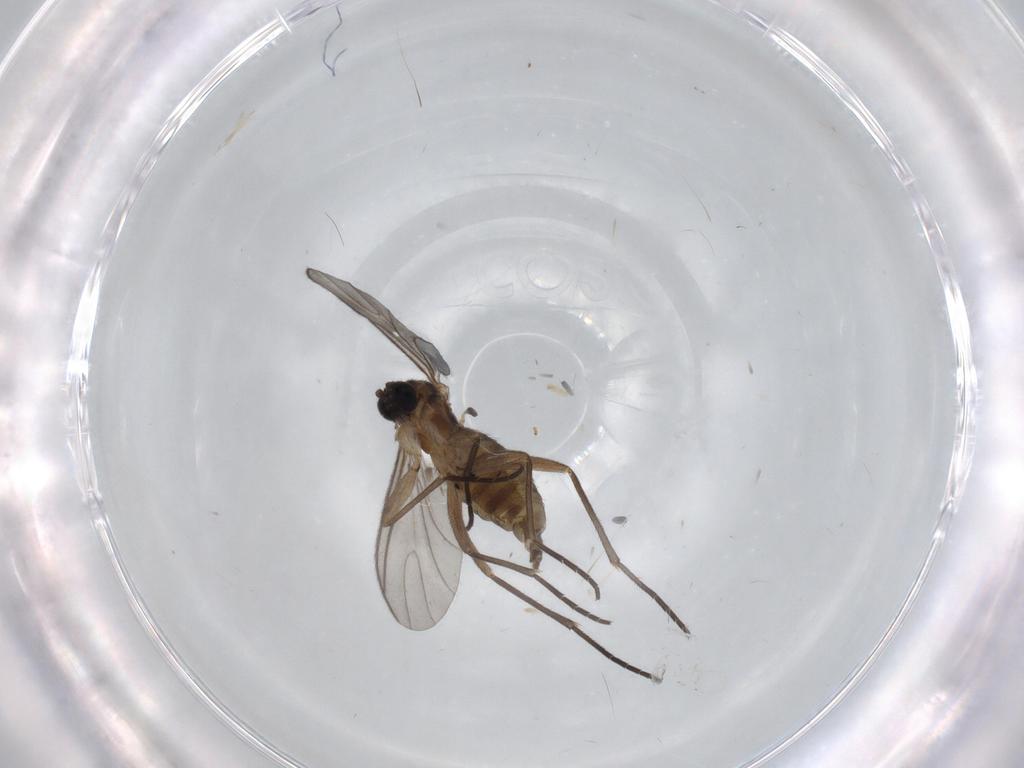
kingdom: Animalia
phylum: Arthropoda
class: Insecta
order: Diptera
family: Sciaridae
